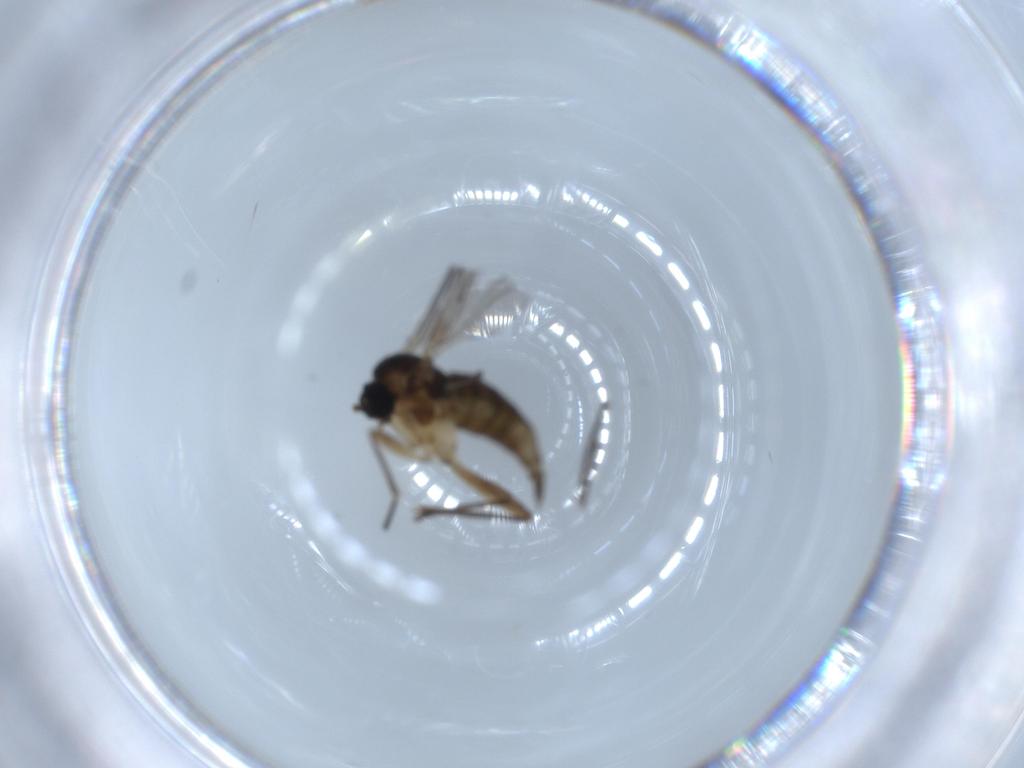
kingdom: Animalia
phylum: Arthropoda
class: Insecta
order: Diptera
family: Sciaridae
